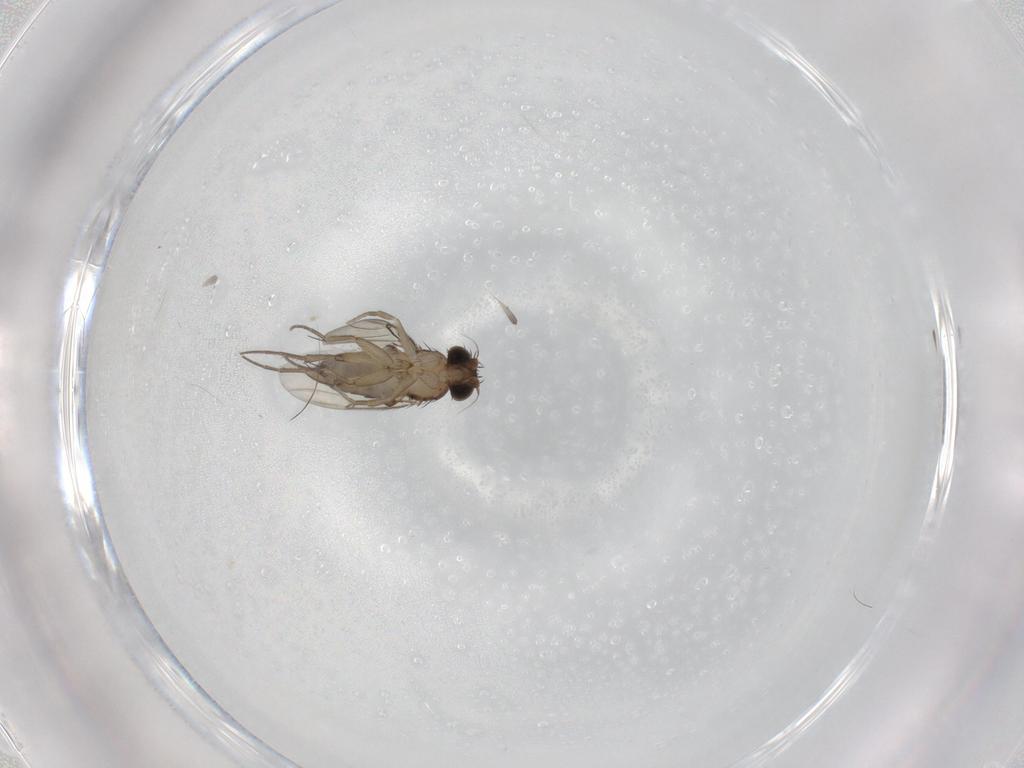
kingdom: Animalia
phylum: Arthropoda
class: Insecta
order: Diptera
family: Phoridae
